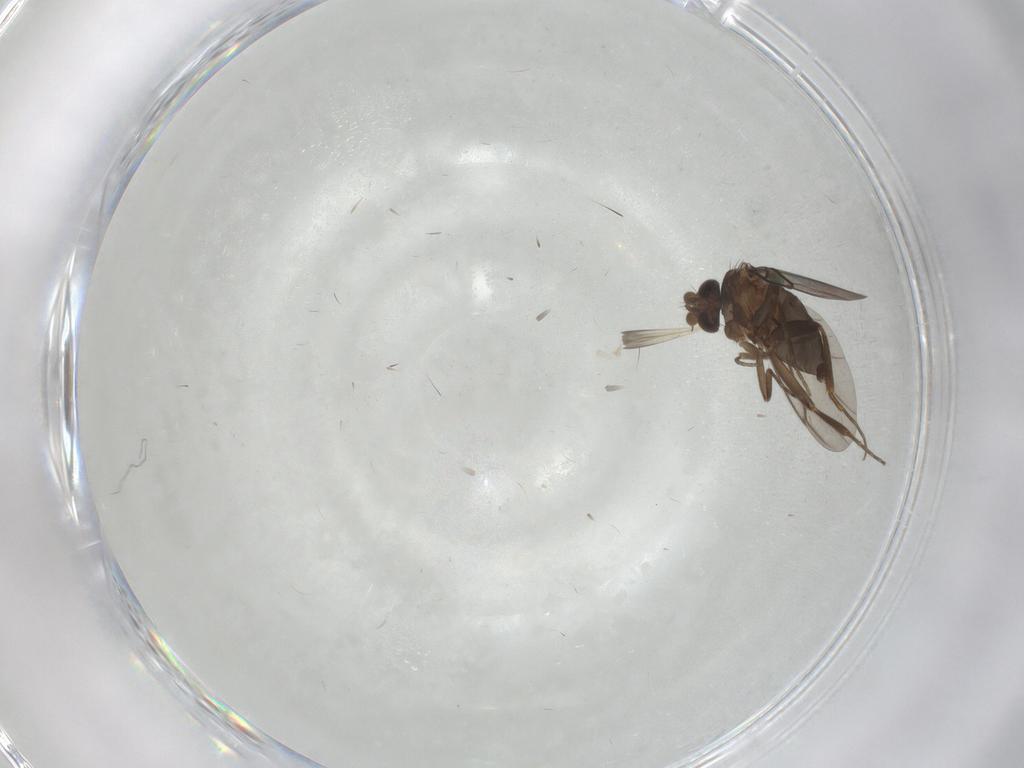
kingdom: Animalia
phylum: Arthropoda
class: Insecta
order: Diptera
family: Cecidomyiidae
